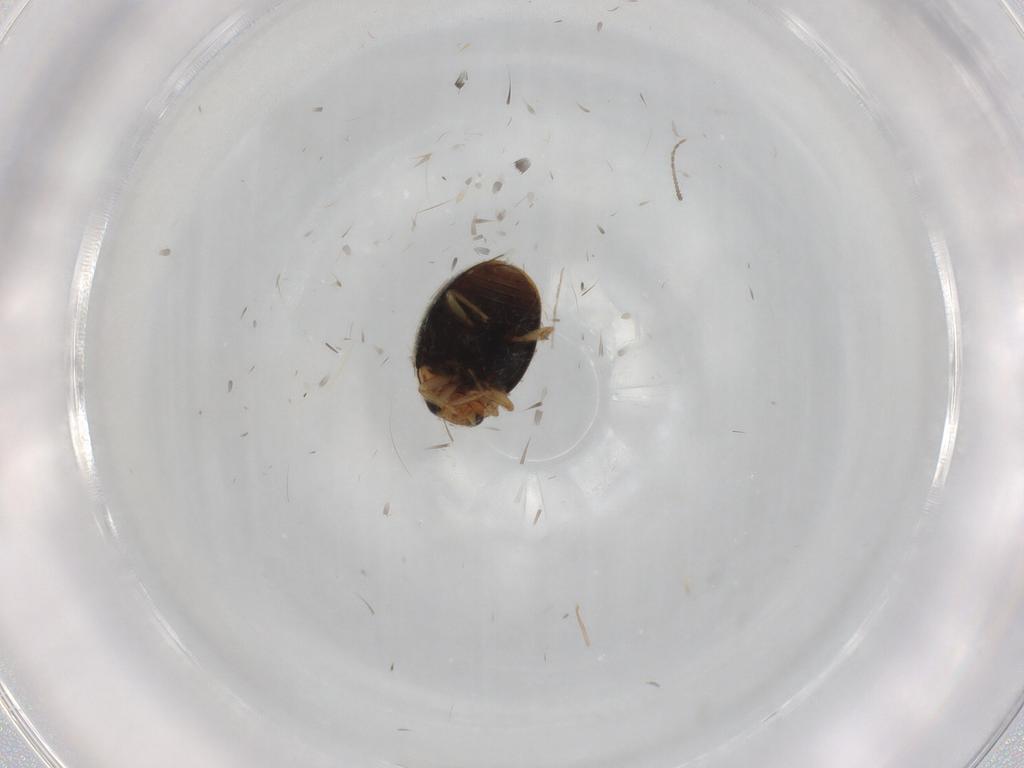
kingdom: Animalia
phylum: Arthropoda
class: Insecta
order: Coleoptera
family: Coccinellidae
